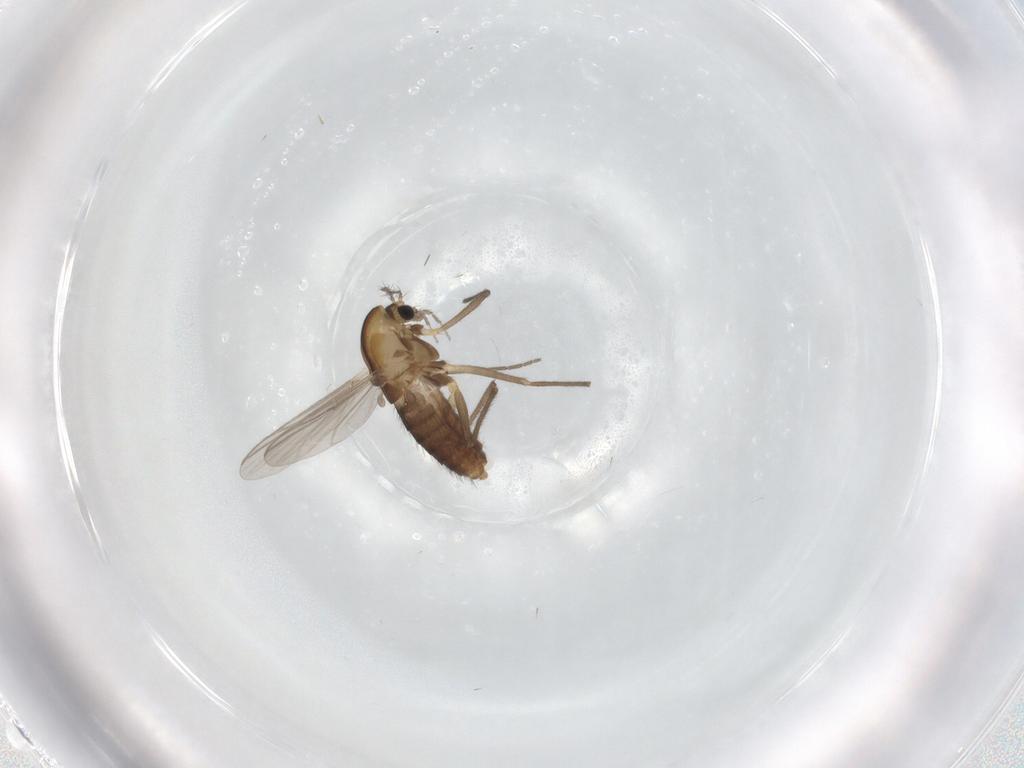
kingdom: Animalia
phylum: Arthropoda
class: Insecta
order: Diptera
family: Chironomidae
